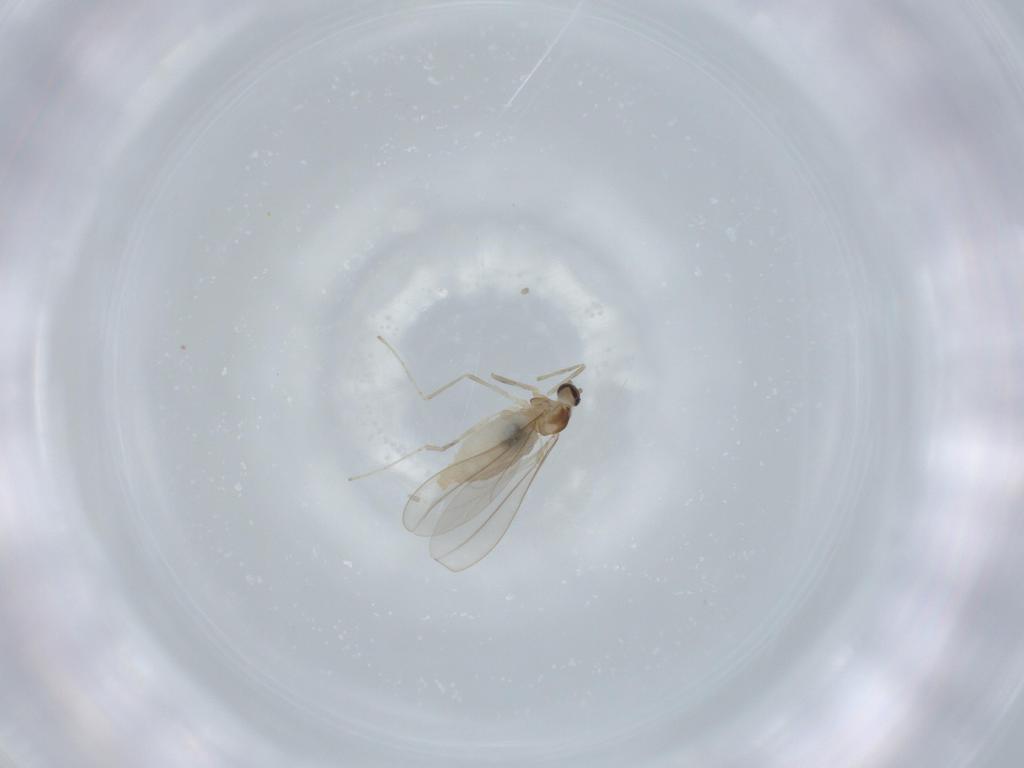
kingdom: Animalia
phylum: Arthropoda
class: Insecta
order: Diptera
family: Cecidomyiidae
